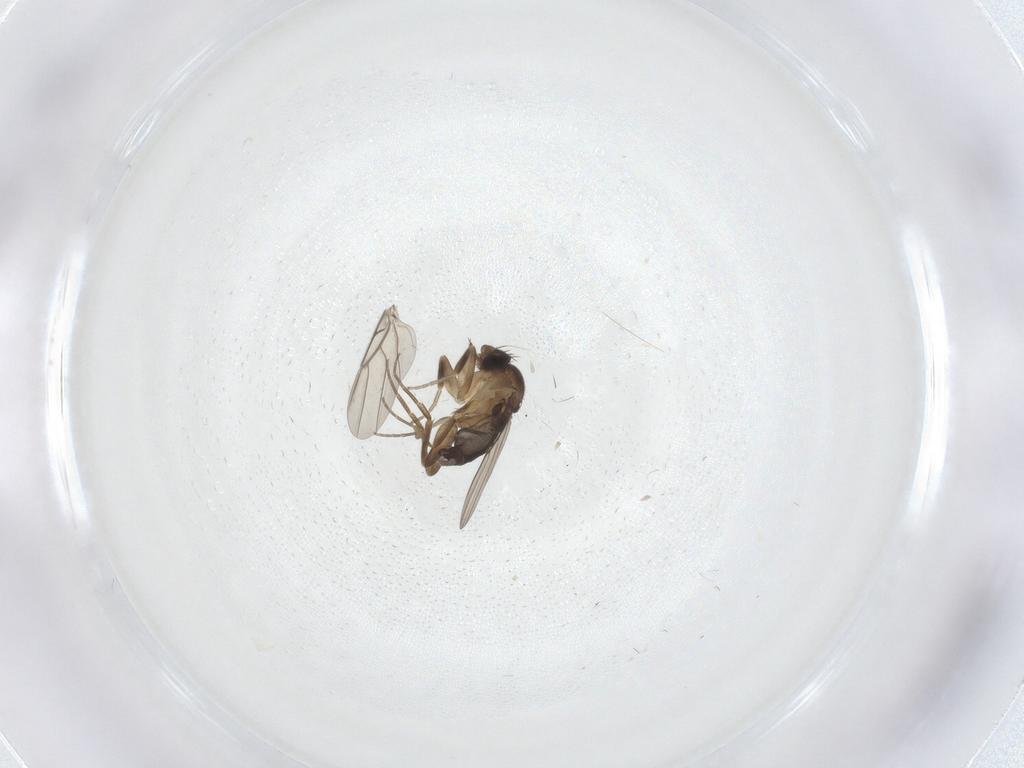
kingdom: Animalia
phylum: Arthropoda
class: Insecta
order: Diptera
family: Phoridae
